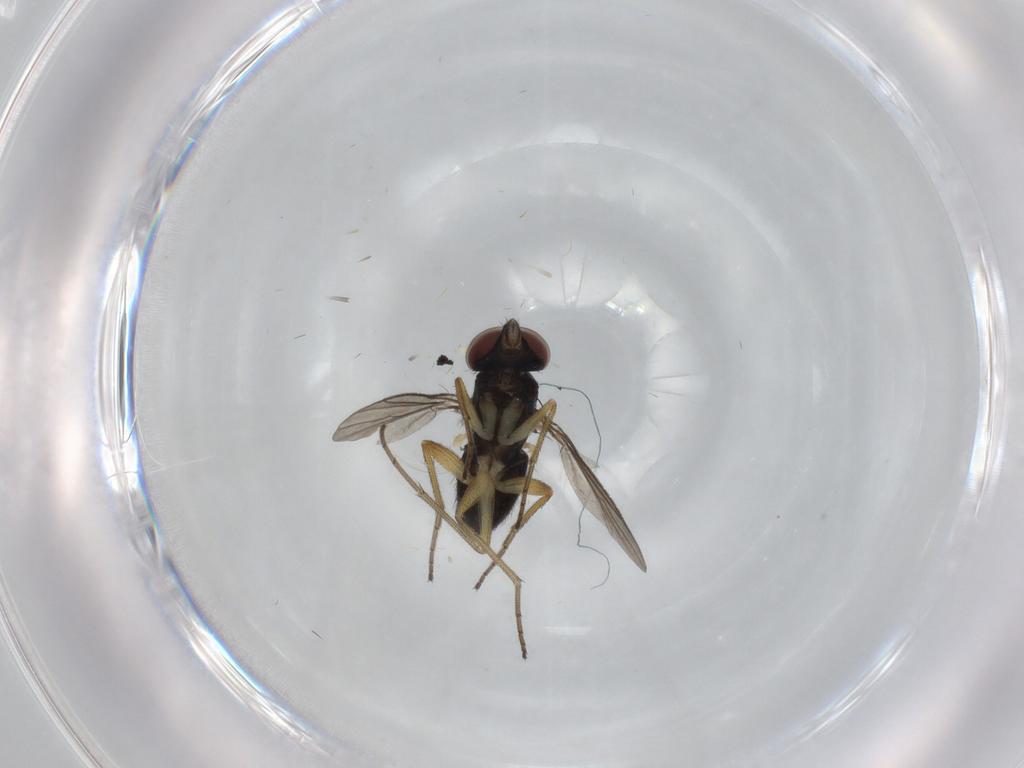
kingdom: Animalia
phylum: Arthropoda
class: Insecta
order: Diptera
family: Dolichopodidae
